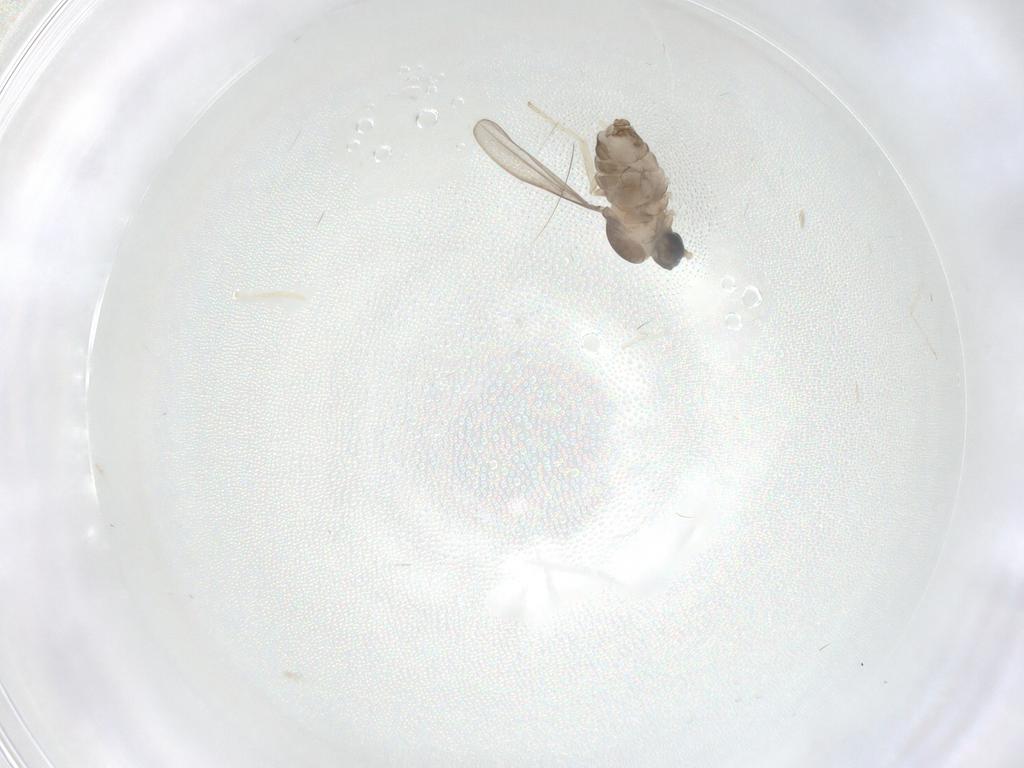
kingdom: Animalia
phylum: Arthropoda
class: Insecta
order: Diptera
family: Cecidomyiidae
